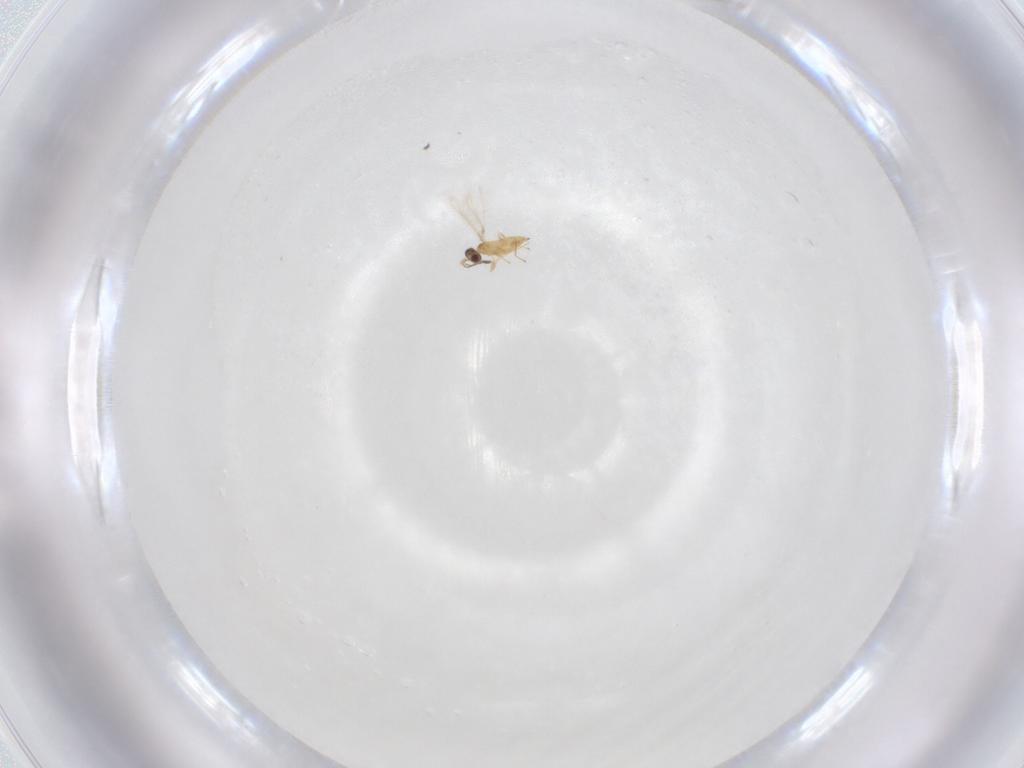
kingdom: Animalia
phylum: Arthropoda
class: Insecta
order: Hymenoptera
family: Mymaridae
